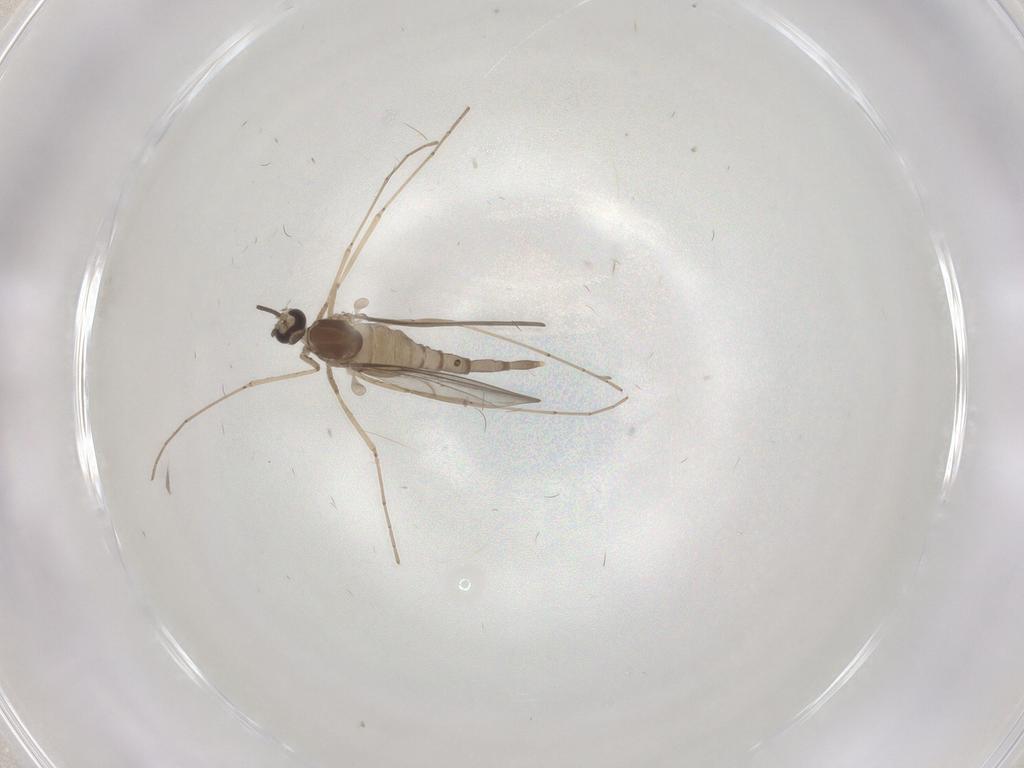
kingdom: Animalia
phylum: Arthropoda
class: Insecta
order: Diptera
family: Cecidomyiidae
